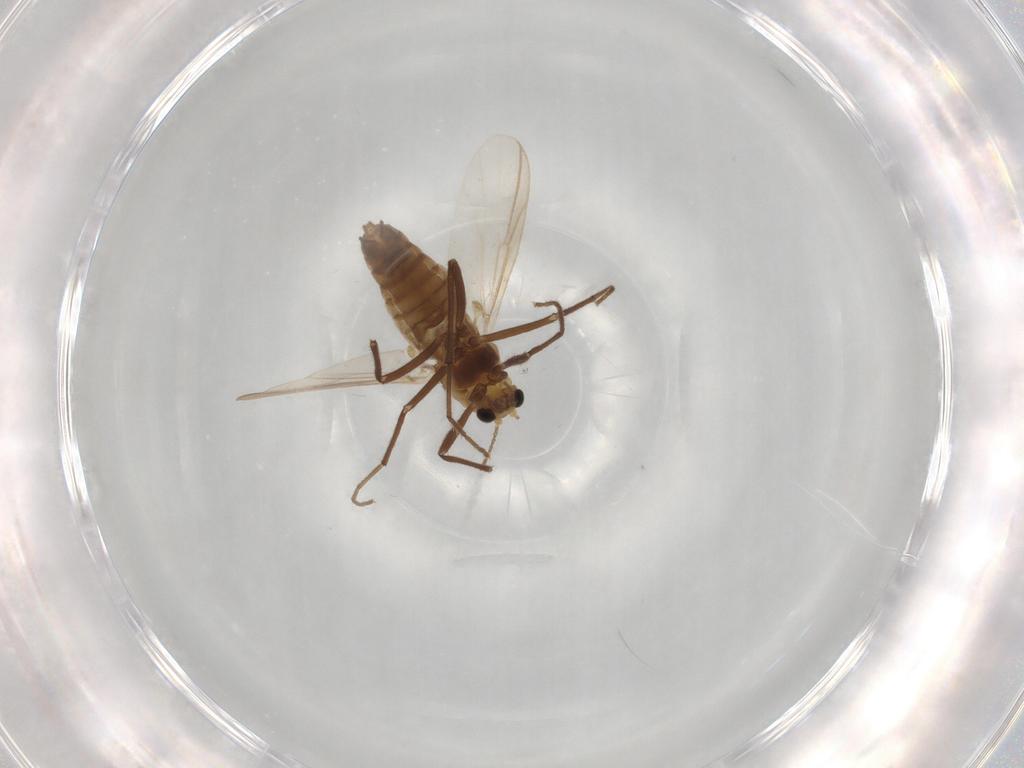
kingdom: Animalia
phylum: Arthropoda
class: Insecta
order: Diptera
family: Chironomidae
